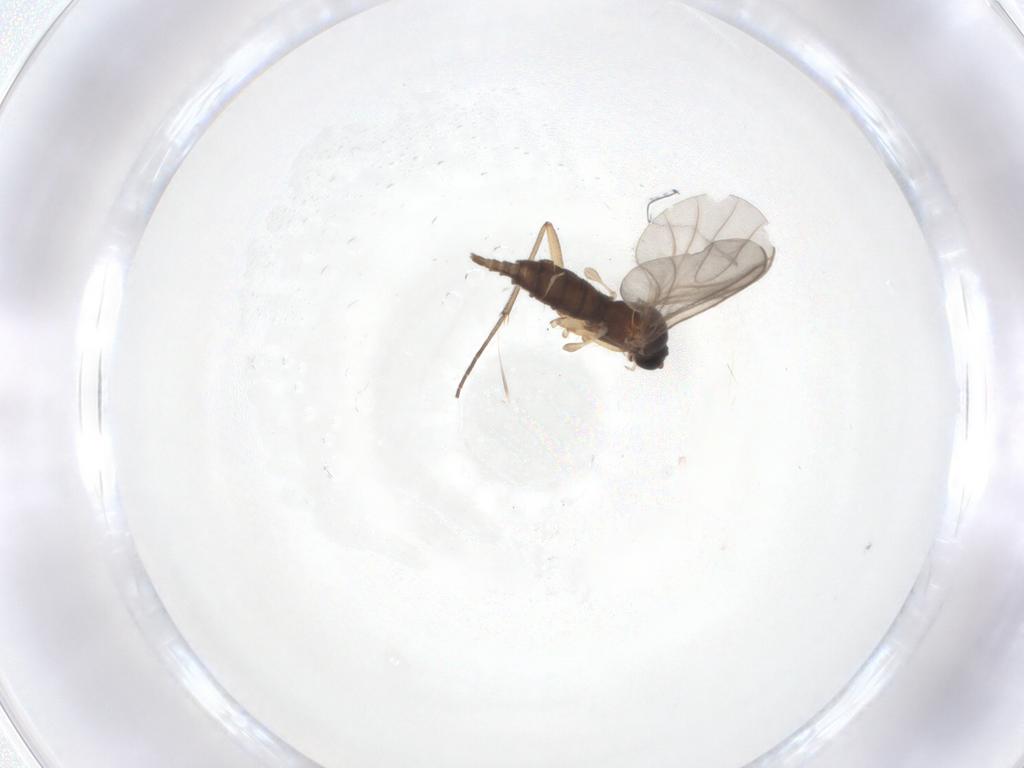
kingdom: Animalia
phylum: Arthropoda
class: Insecta
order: Diptera
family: Sciaridae
